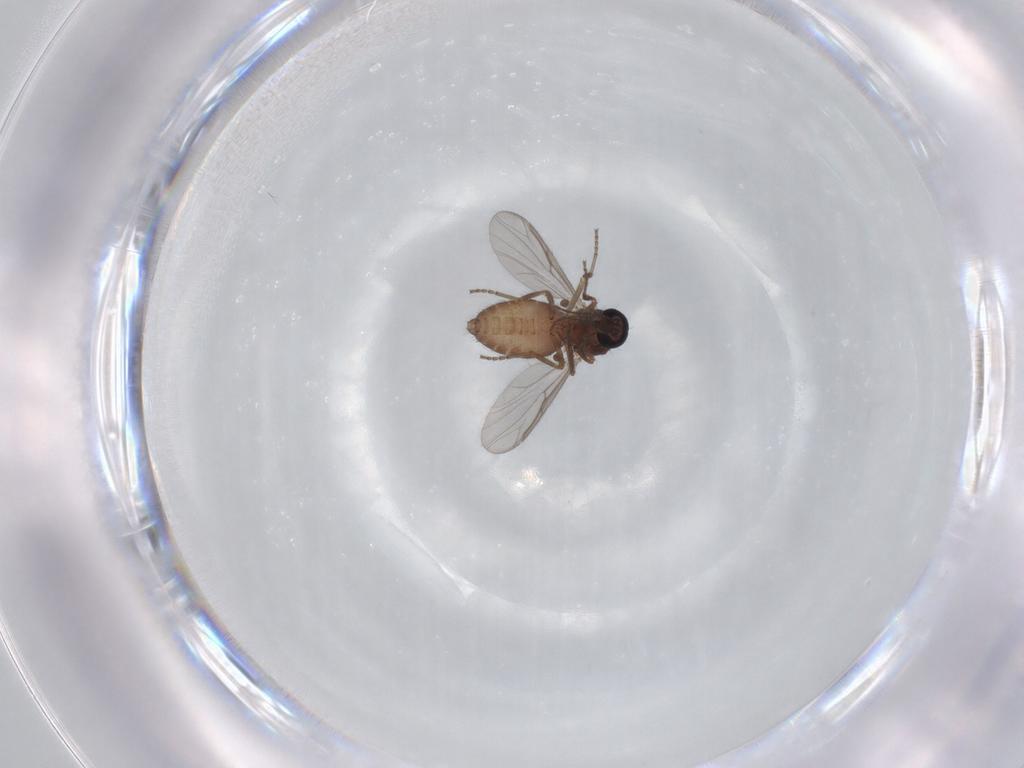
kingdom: Animalia
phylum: Arthropoda
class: Insecta
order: Diptera
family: Ceratopogonidae
